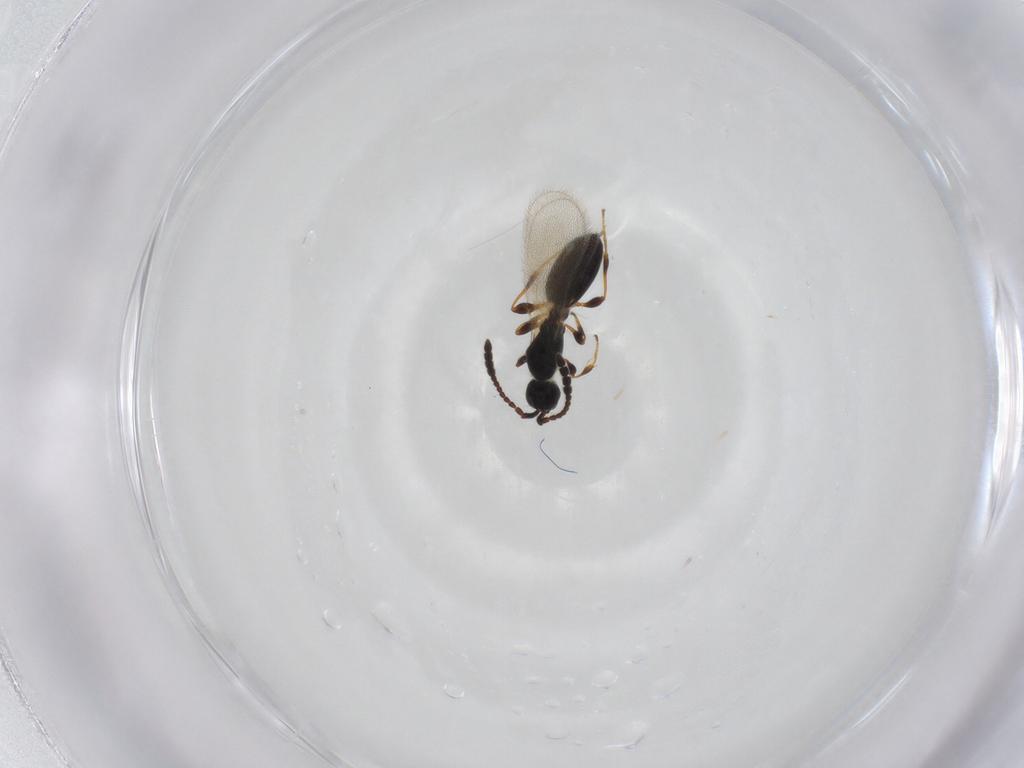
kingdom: Animalia
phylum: Arthropoda
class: Insecta
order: Hymenoptera
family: Diapriidae
